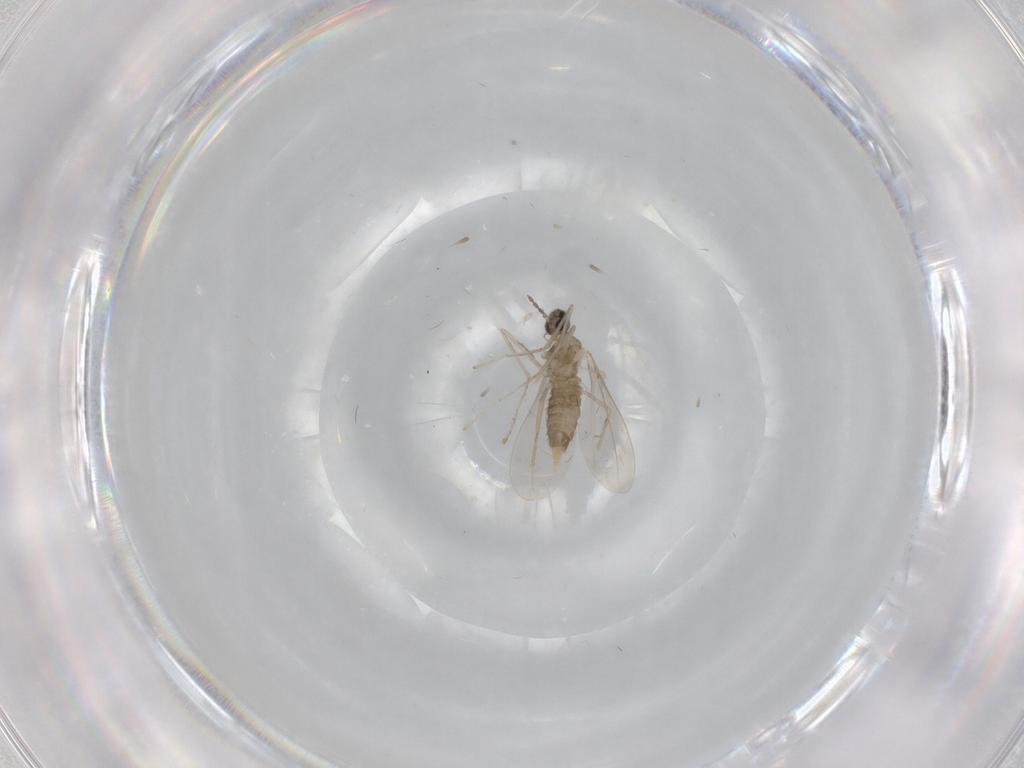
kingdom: Animalia
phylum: Arthropoda
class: Insecta
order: Diptera
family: Cecidomyiidae
